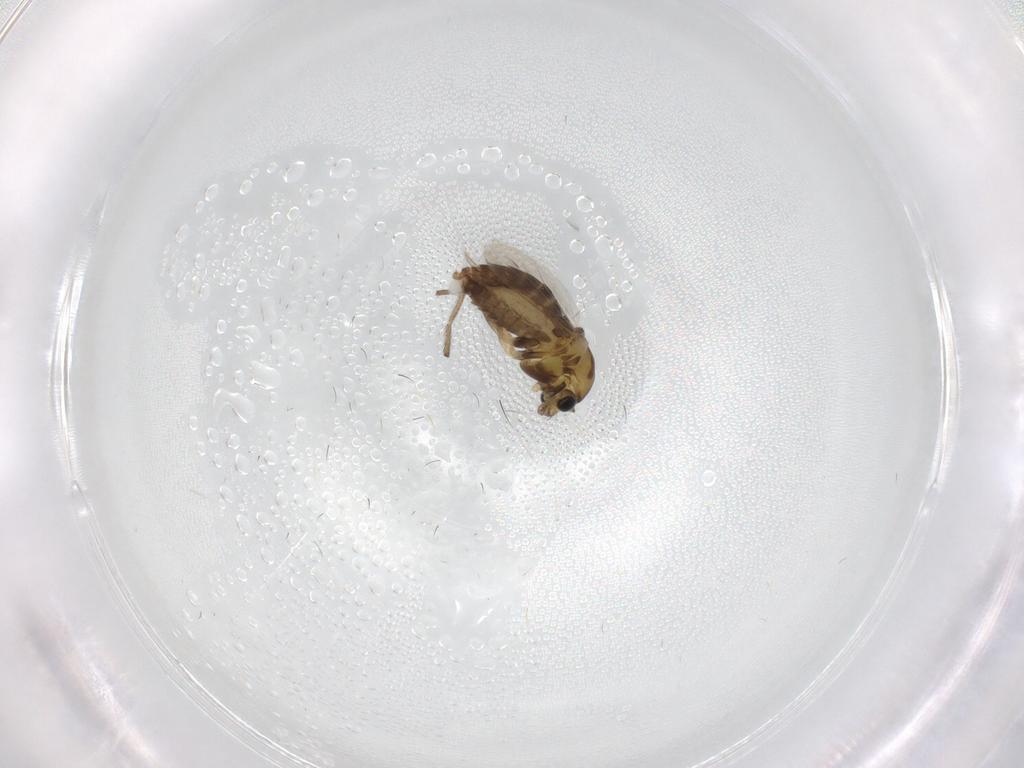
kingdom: Animalia
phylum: Arthropoda
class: Insecta
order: Diptera
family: Chironomidae
